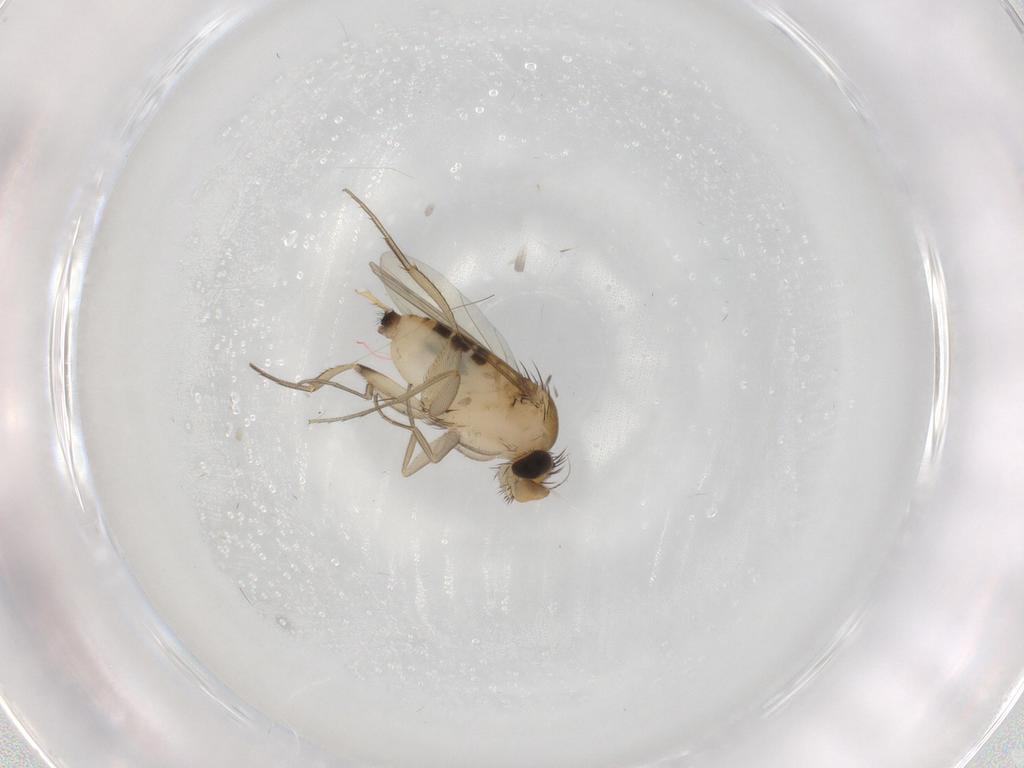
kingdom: Animalia
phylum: Arthropoda
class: Insecta
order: Diptera
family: Phoridae
